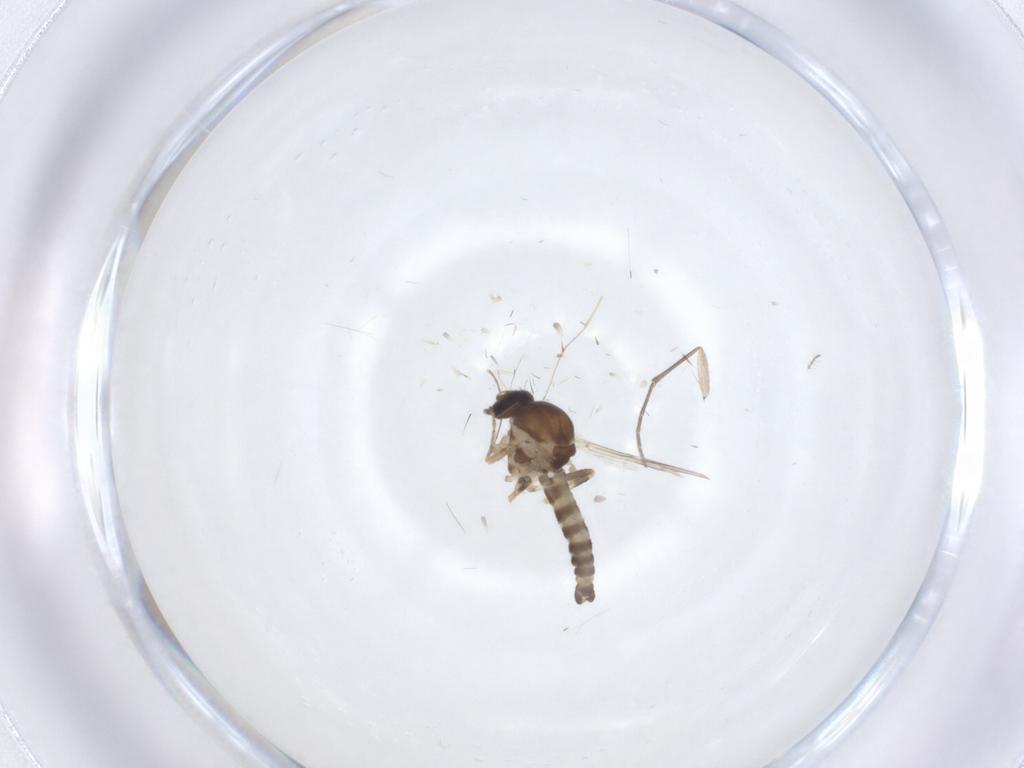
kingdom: Animalia
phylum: Arthropoda
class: Insecta
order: Diptera
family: Ceratopogonidae
